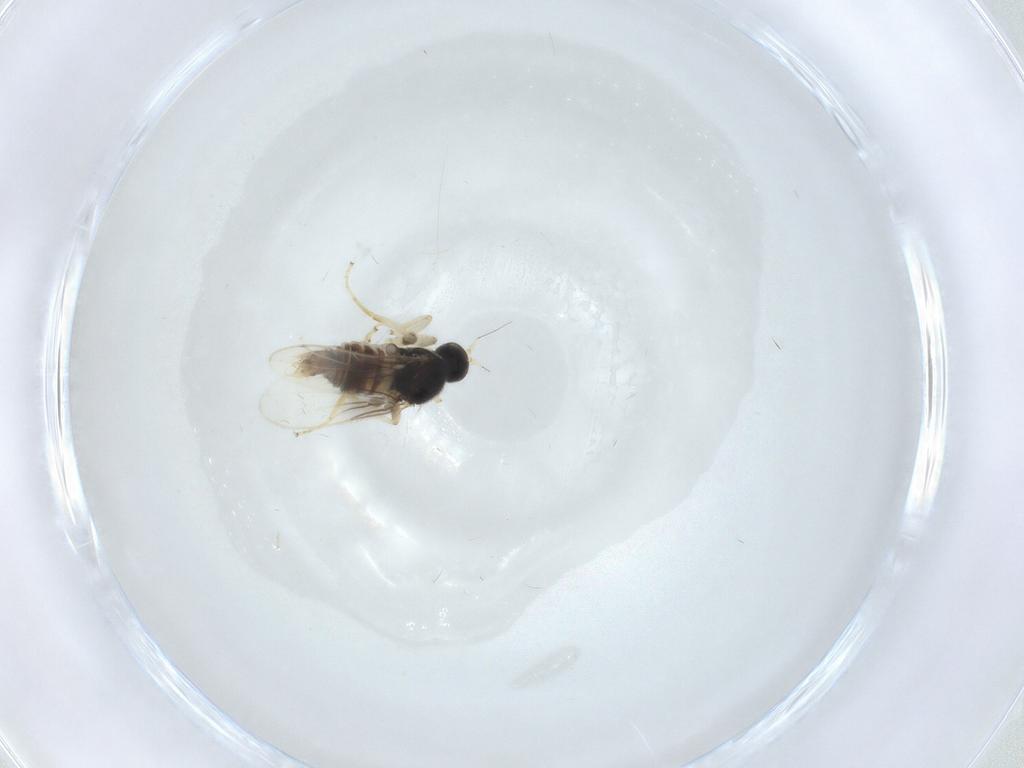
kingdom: Animalia
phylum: Arthropoda
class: Insecta
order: Diptera
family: Hybotidae
